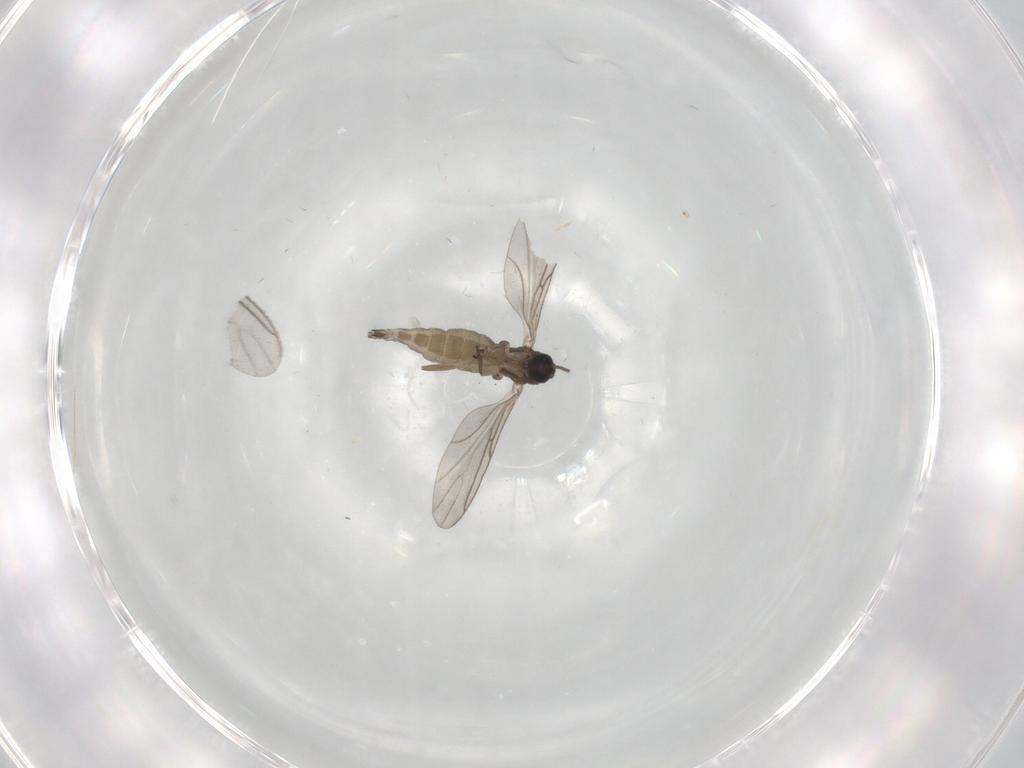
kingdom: Animalia
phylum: Arthropoda
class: Insecta
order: Diptera
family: Sciaridae
